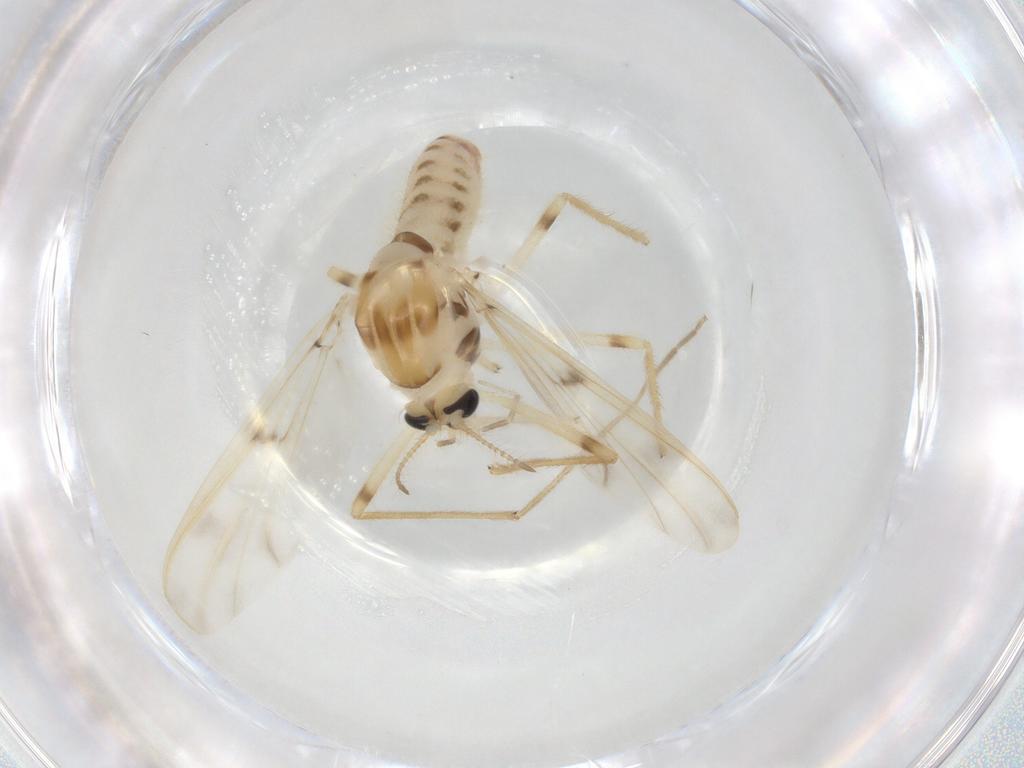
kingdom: Animalia
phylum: Arthropoda
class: Insecta
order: Diptera
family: Chironomidae
